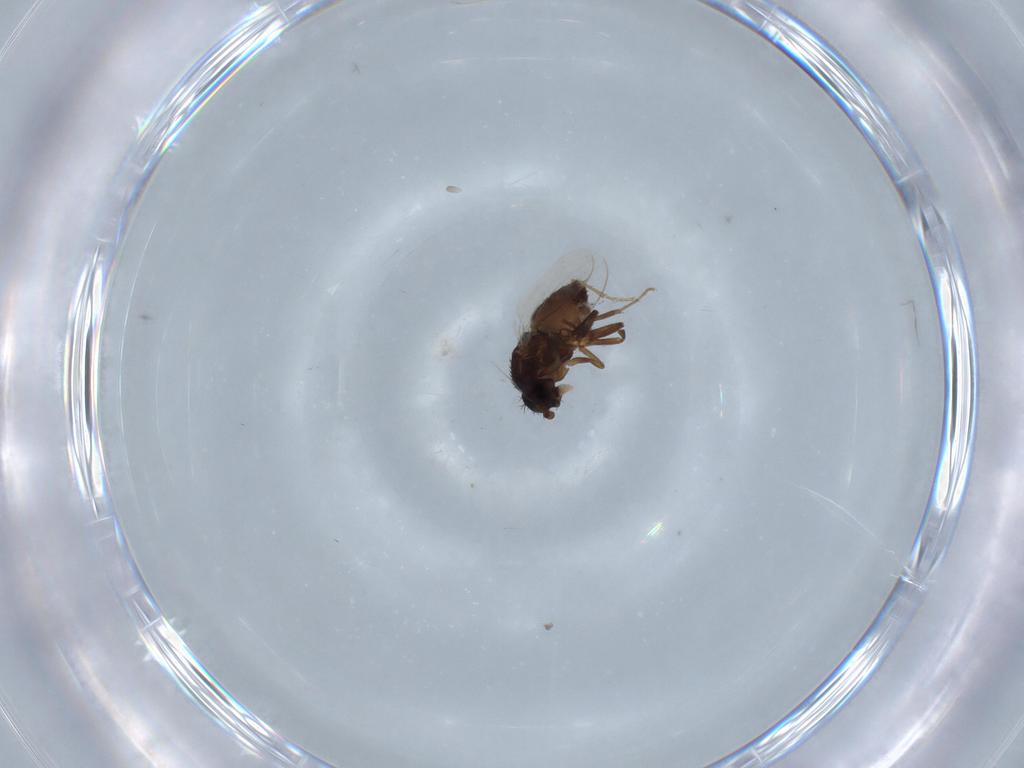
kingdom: Animalia
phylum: Arthropoda
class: Insecta
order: Diptera
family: Sphaeroceridae
